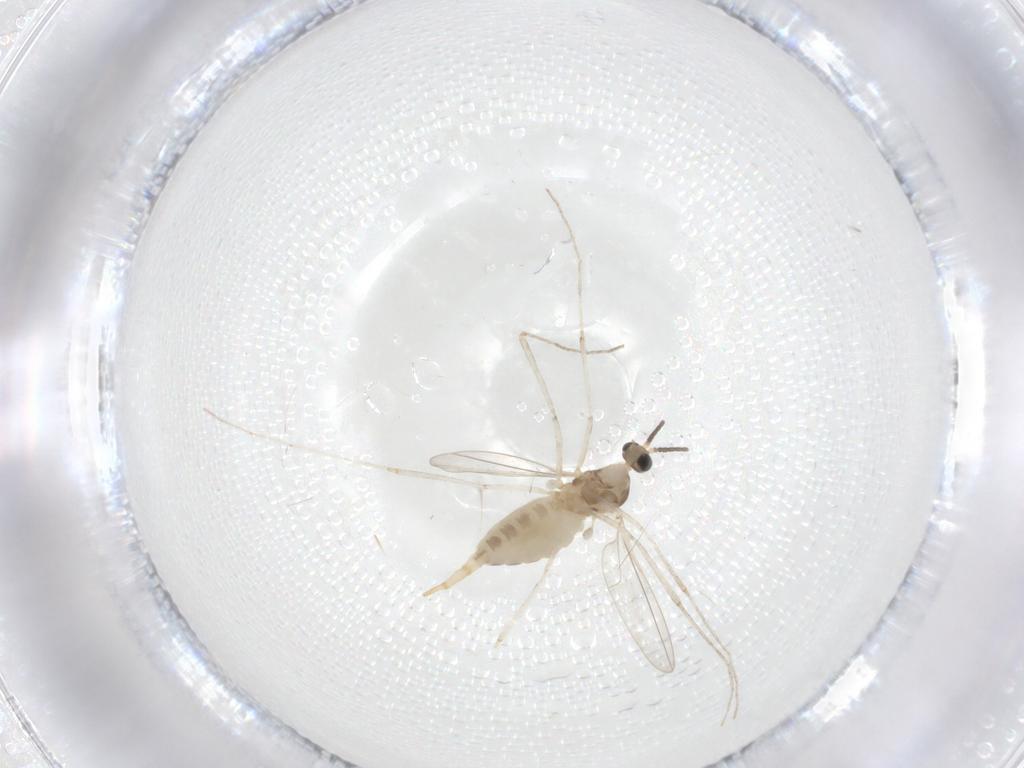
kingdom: Animalia
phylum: Arthropoda
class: Insecta
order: Diptera
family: Cecidomyiidae
